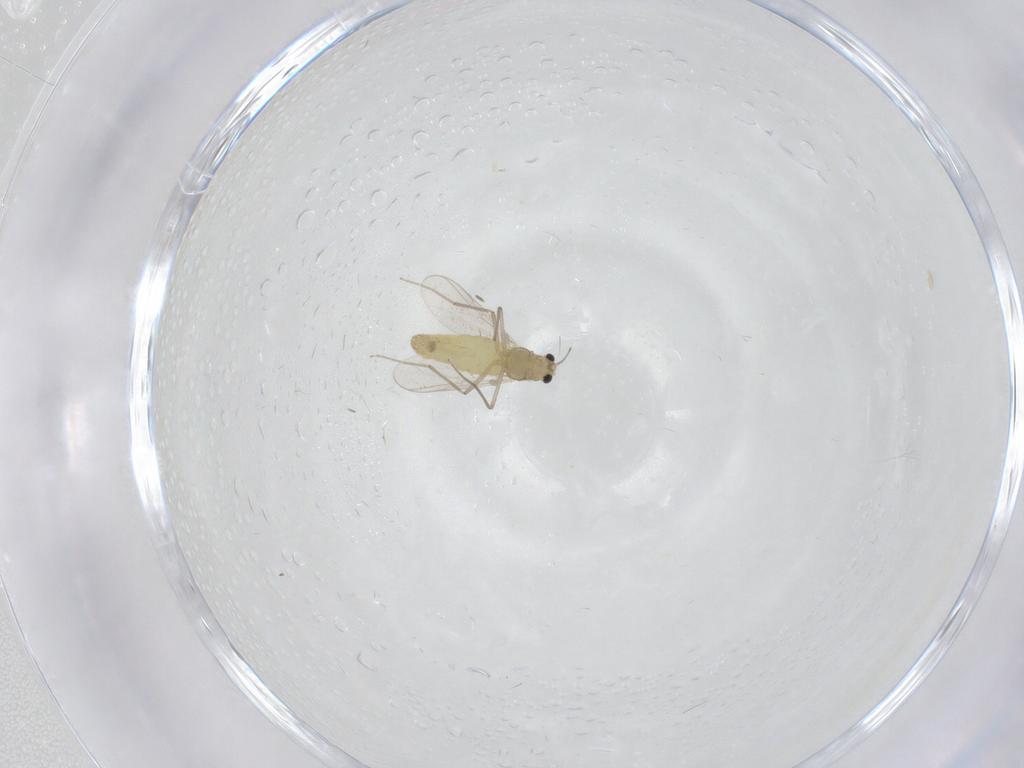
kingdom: Animalia
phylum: Arthropoda
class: Insecta
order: Diptera
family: Chironomidae
